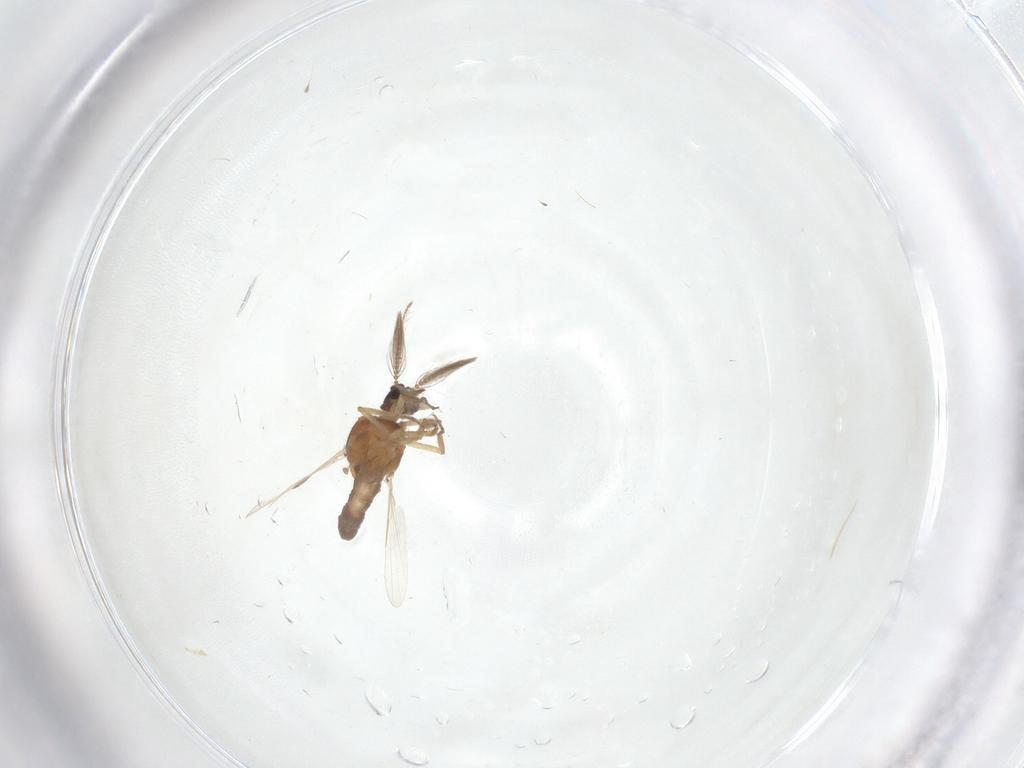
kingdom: Animalia
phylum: Arthropoda
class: Insecta
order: Diptera
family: Ceratopogonidae
